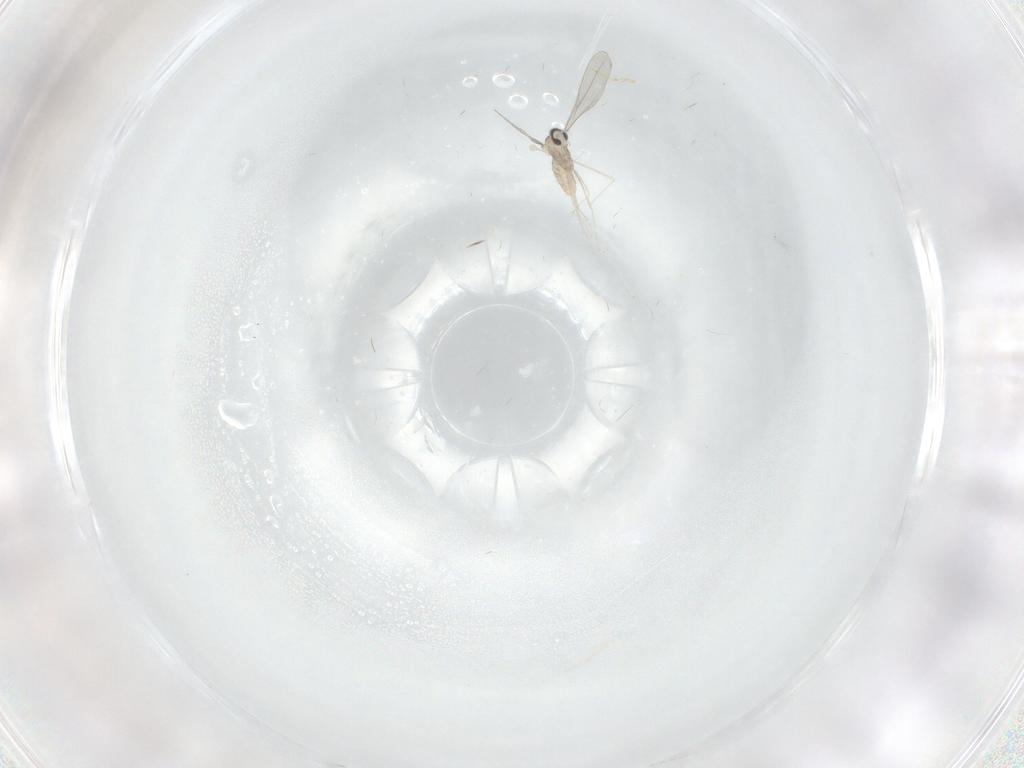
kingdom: Animalia
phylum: Arthropoda
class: Insecta
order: Diptera
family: Cecidomyiidae
